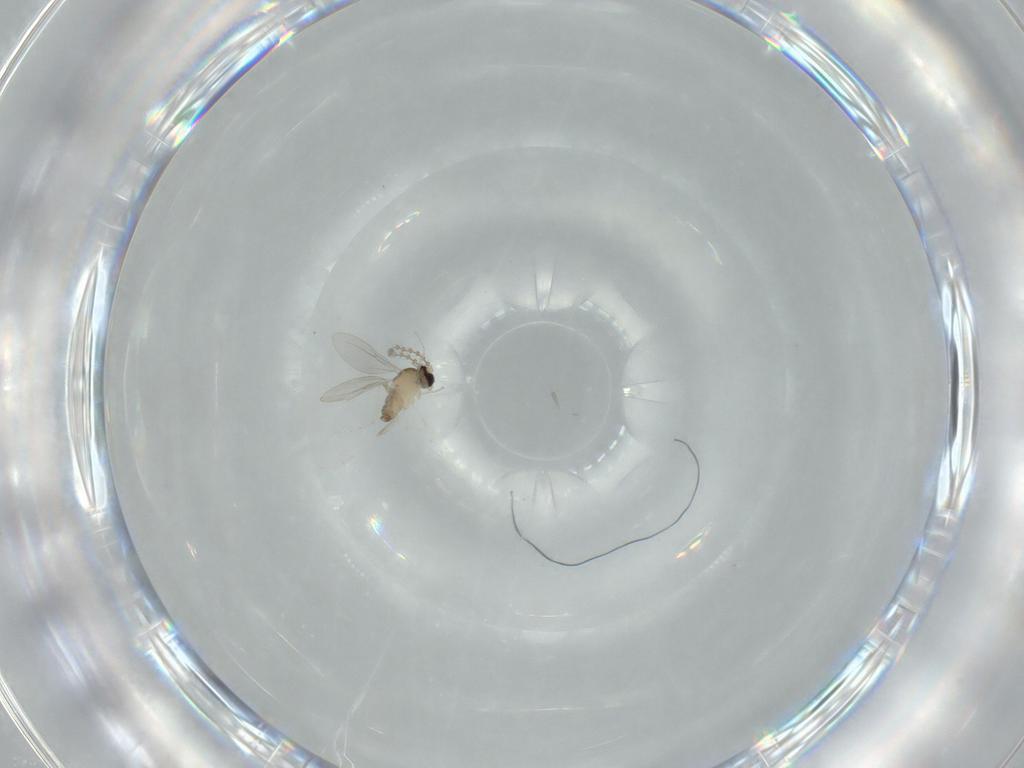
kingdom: Animalia
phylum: Arthropoda
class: Insecta
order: Diptera
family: Cecidomyiidae
